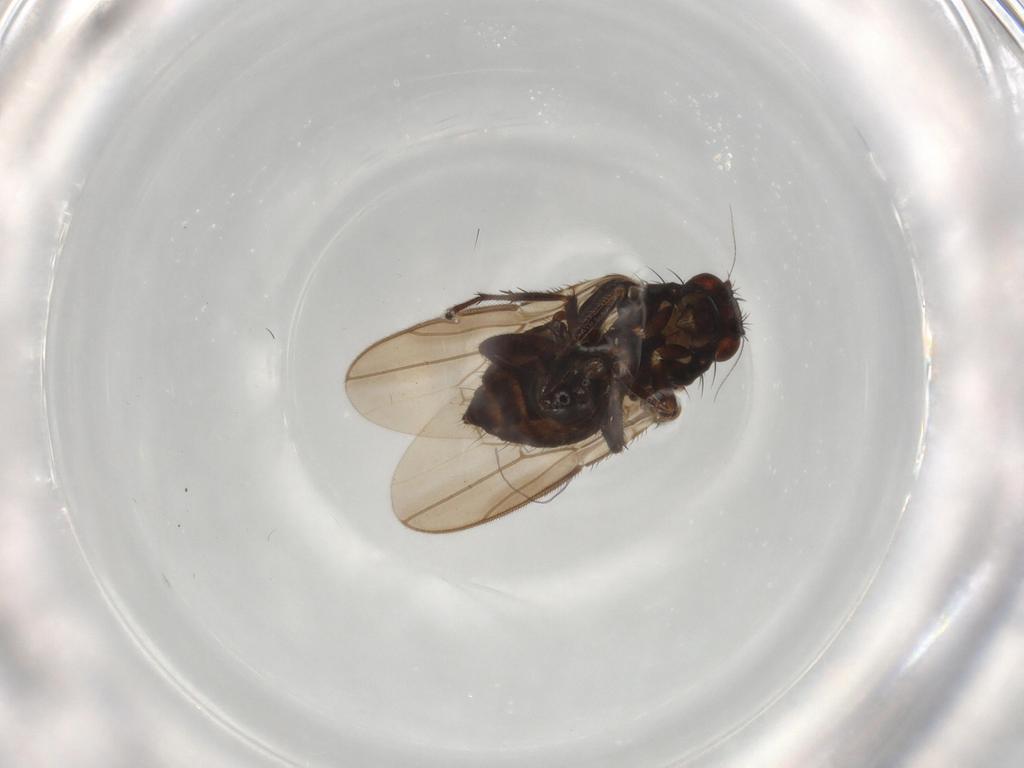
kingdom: Animalia
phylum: Arthropoda
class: Insecta
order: Diptera
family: Sphaeroceridae
